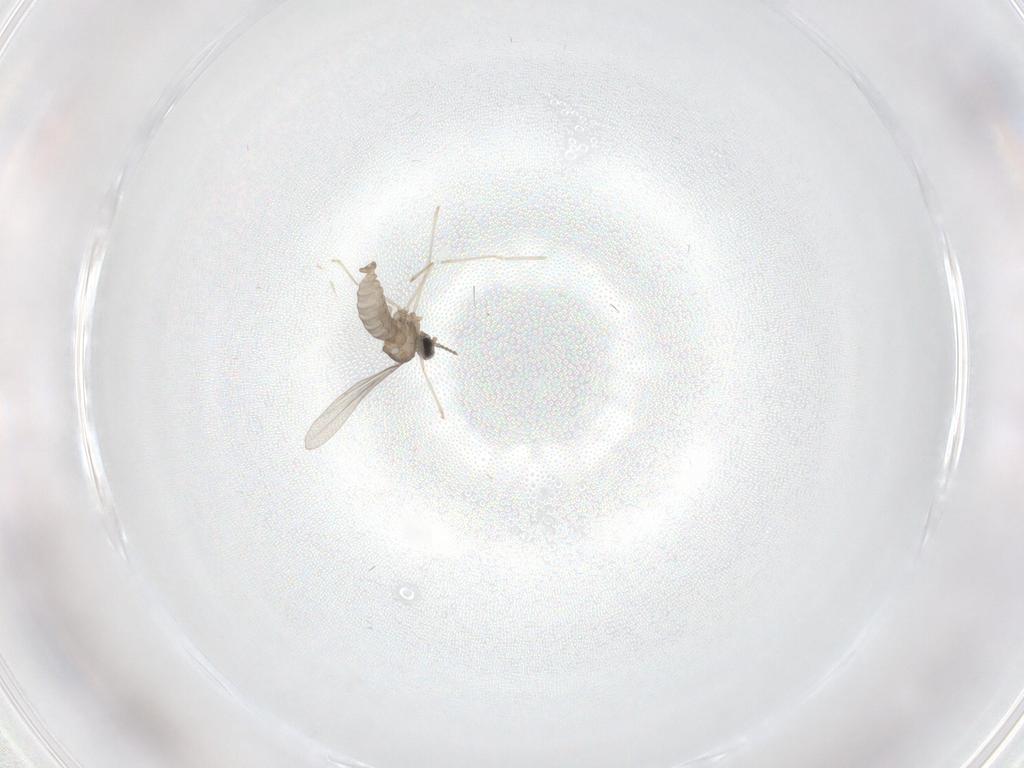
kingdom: Animalia
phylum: Arthropoda
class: Insecta
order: Diptera
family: Cecidomyiidae
